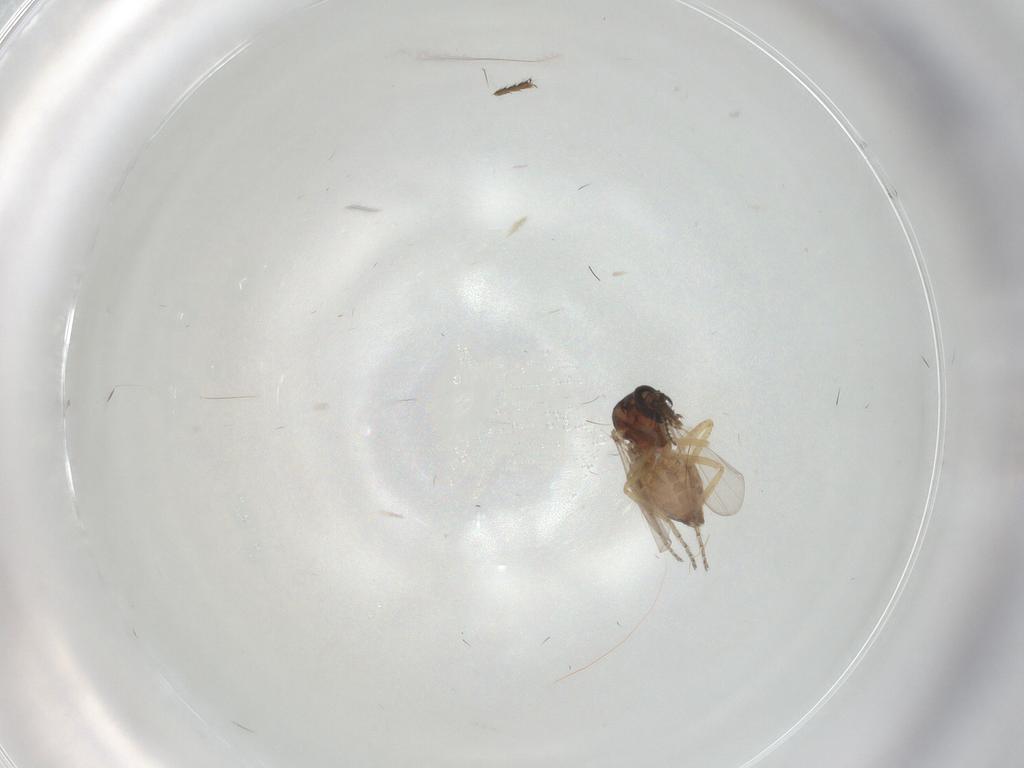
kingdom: Animalia
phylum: Arthropoda
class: Insecta
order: Diptera
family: Ceratopogonidae
